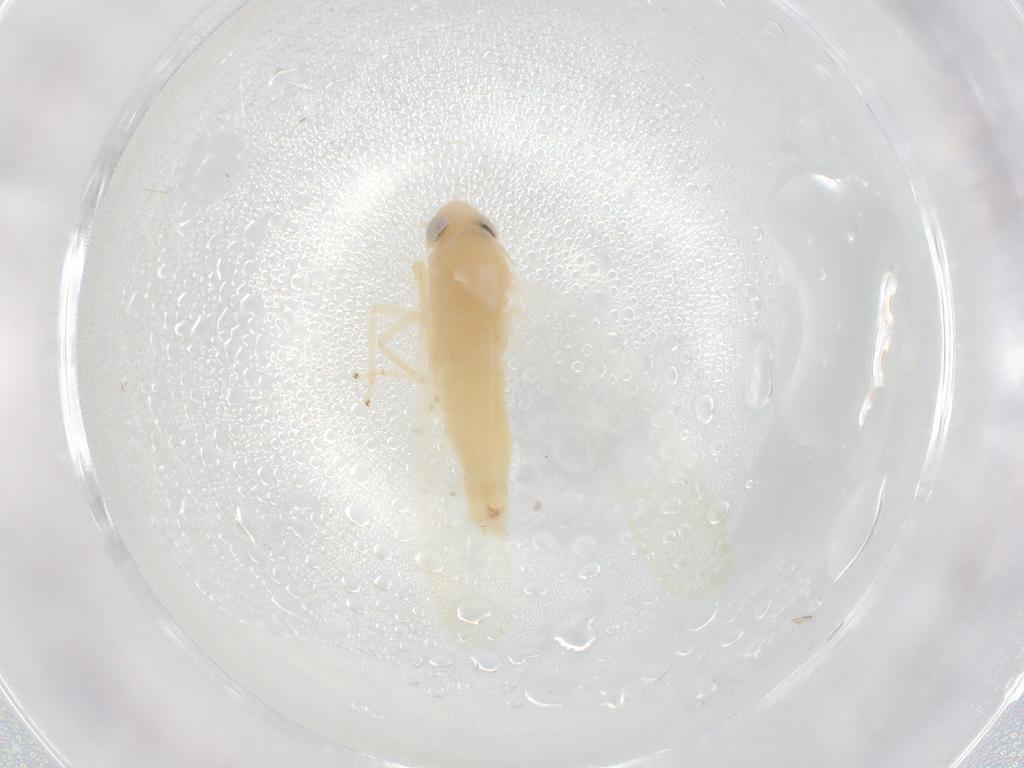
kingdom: Animalia
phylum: Arthropoda
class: Insecta
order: Hemiptera
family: Cicadellidae
